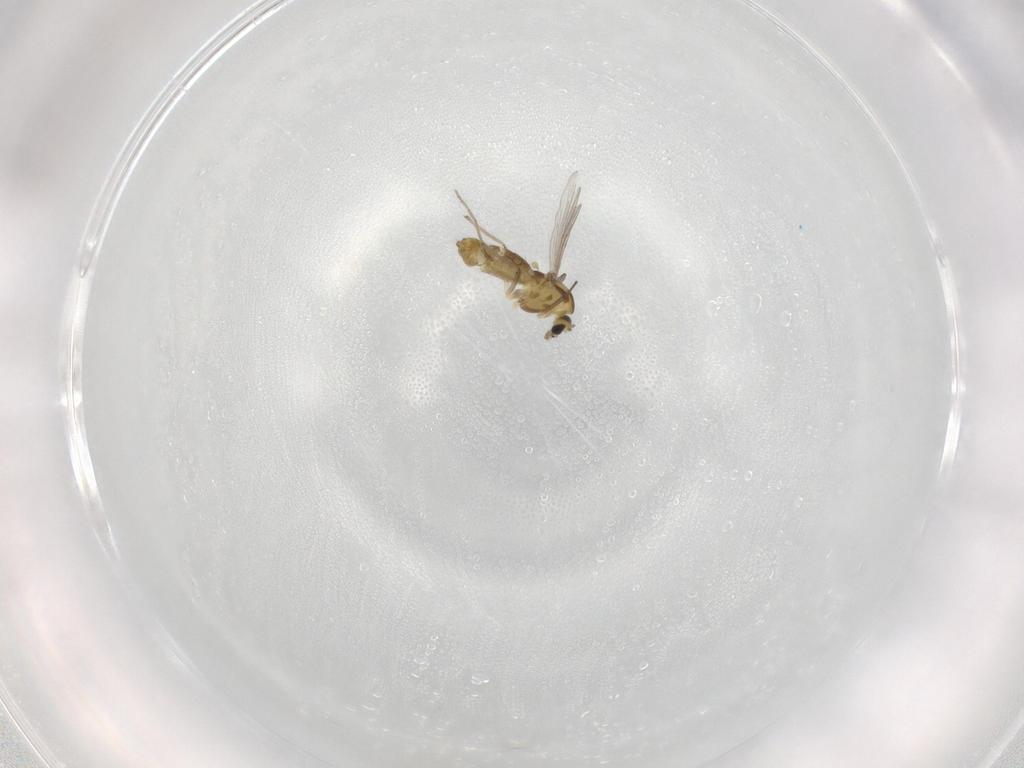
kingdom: Animalia
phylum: Arthropoda
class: Insecta
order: Diptera
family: Chironomidae
